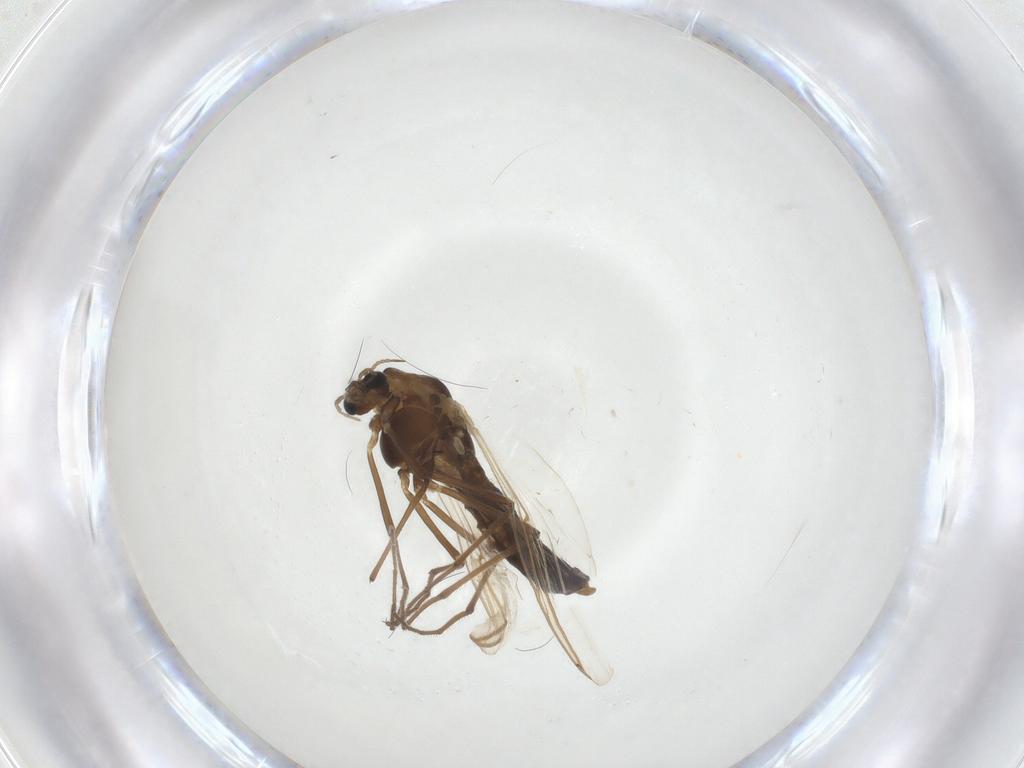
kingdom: Animalia
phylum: Arthropoda
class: Insecta
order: Diptera
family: Chironomidae
